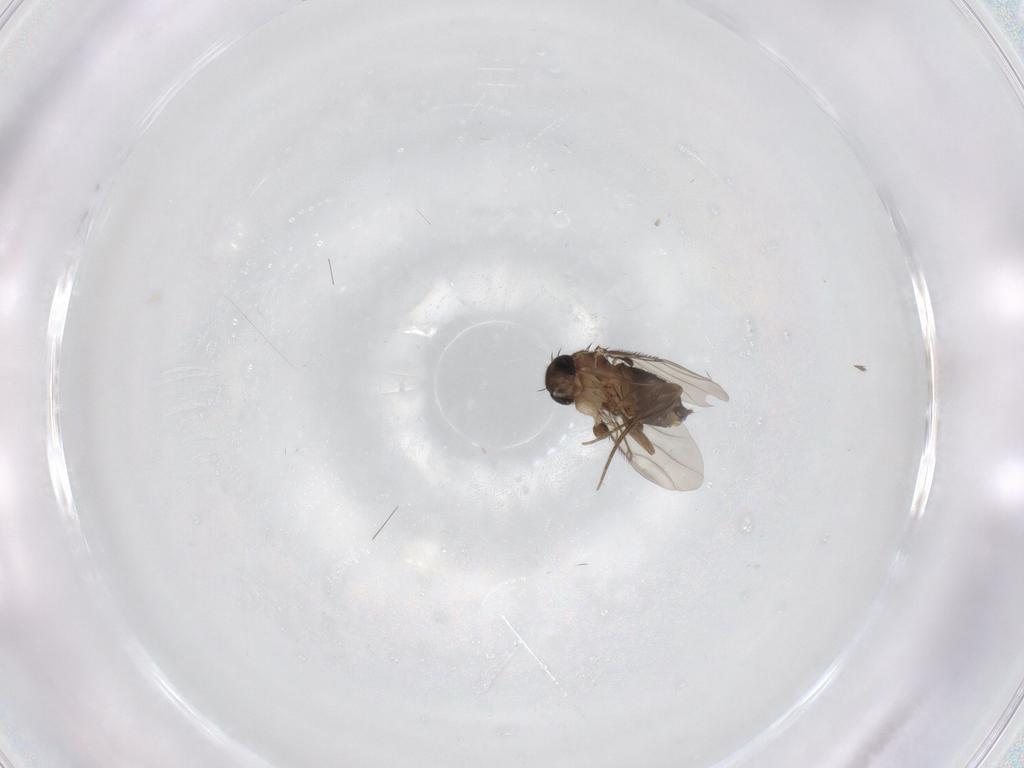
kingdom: Animalia
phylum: Arthropoda
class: Insecta
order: Diptera
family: Phoridae
